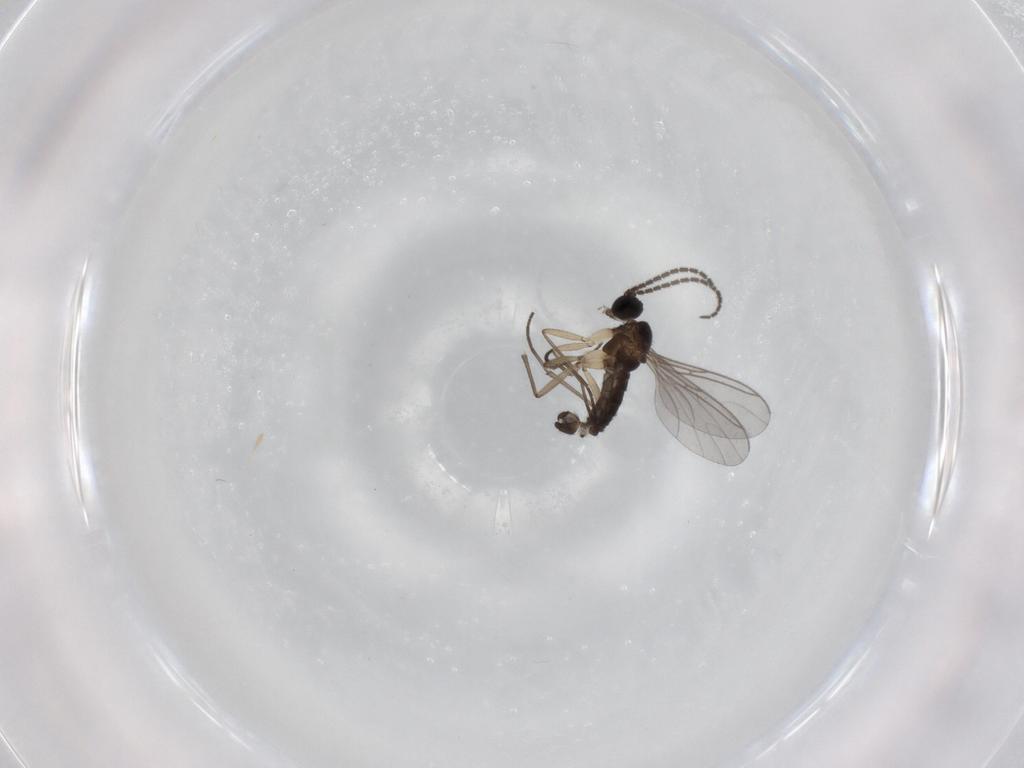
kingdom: Animalia
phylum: Arthropoda
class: Insecta
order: Diptera
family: Sciaridae
